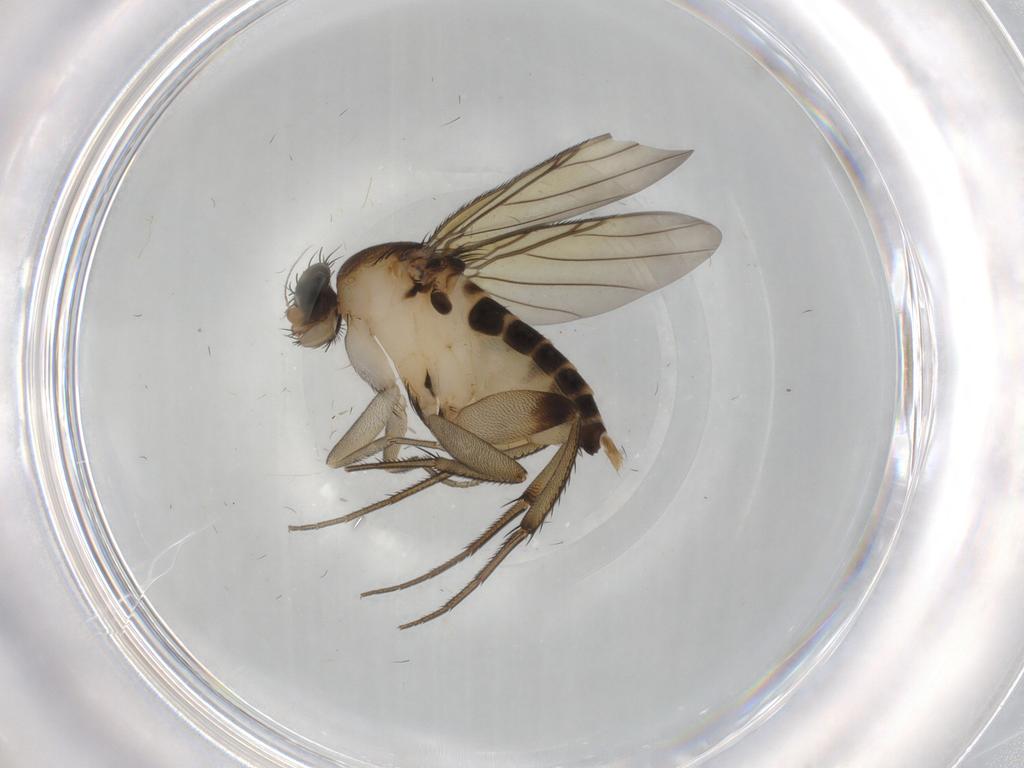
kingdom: Animalia
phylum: Arthropoda
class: Insecta
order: Diptera
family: Phoridae
